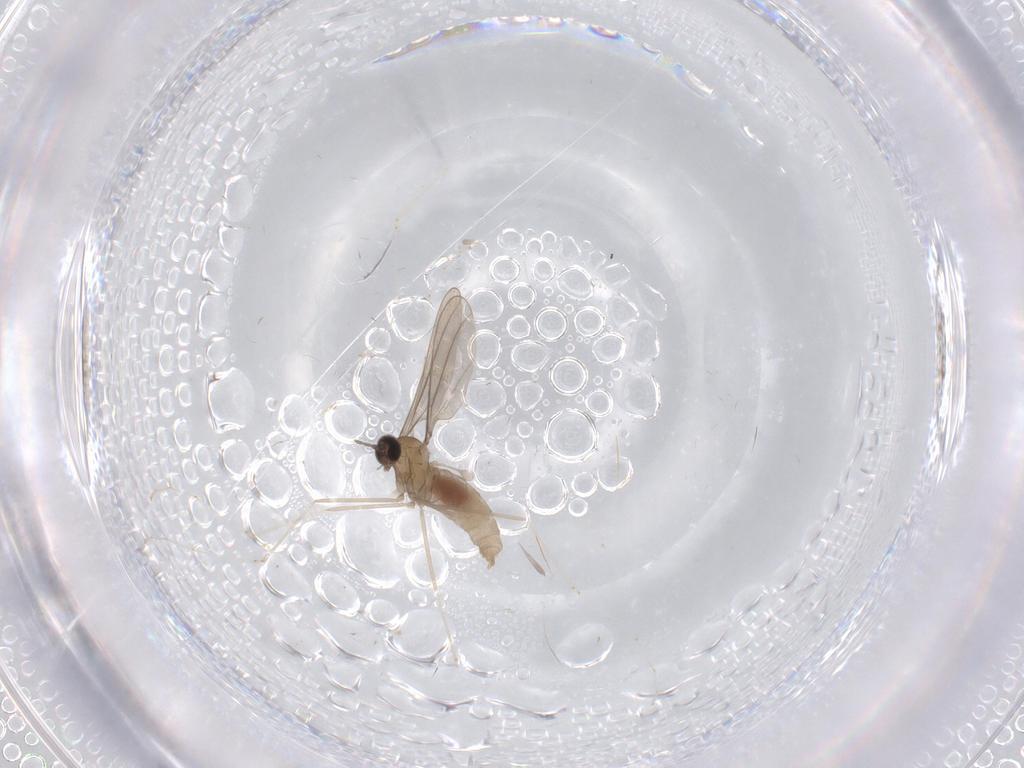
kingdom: Animalia
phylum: Arthropoda
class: Insecta
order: Diptera
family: Cecidomyiidae
